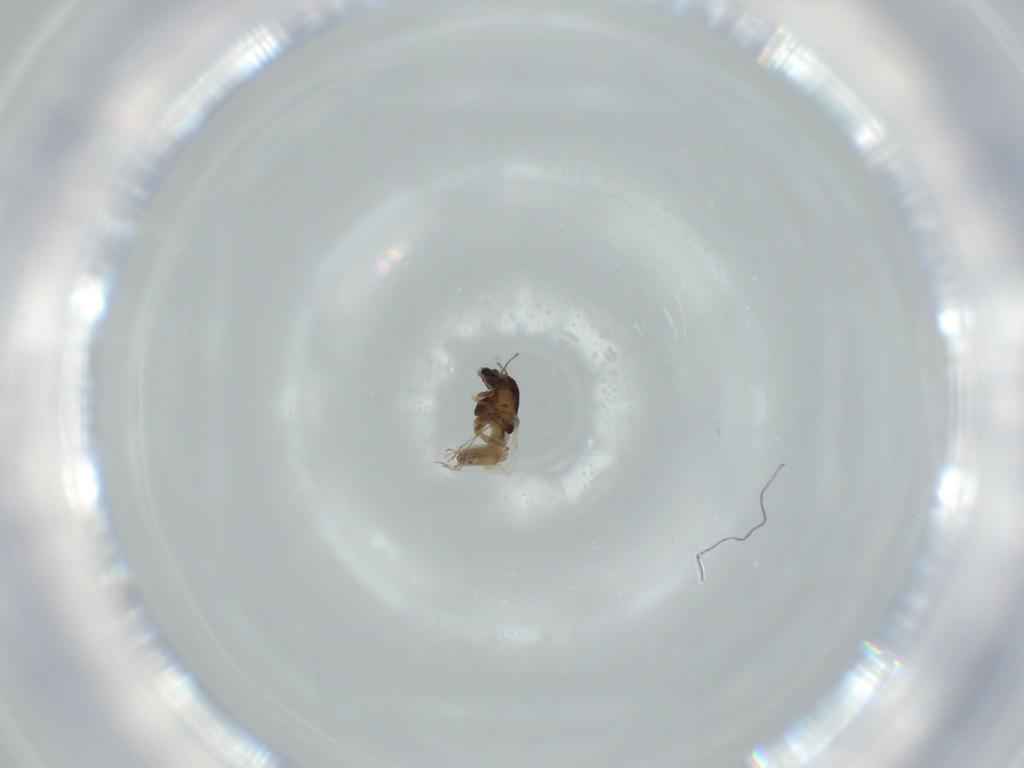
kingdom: Animalia
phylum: Arthropoda
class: Insecta
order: Diptera
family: Chironomidae
